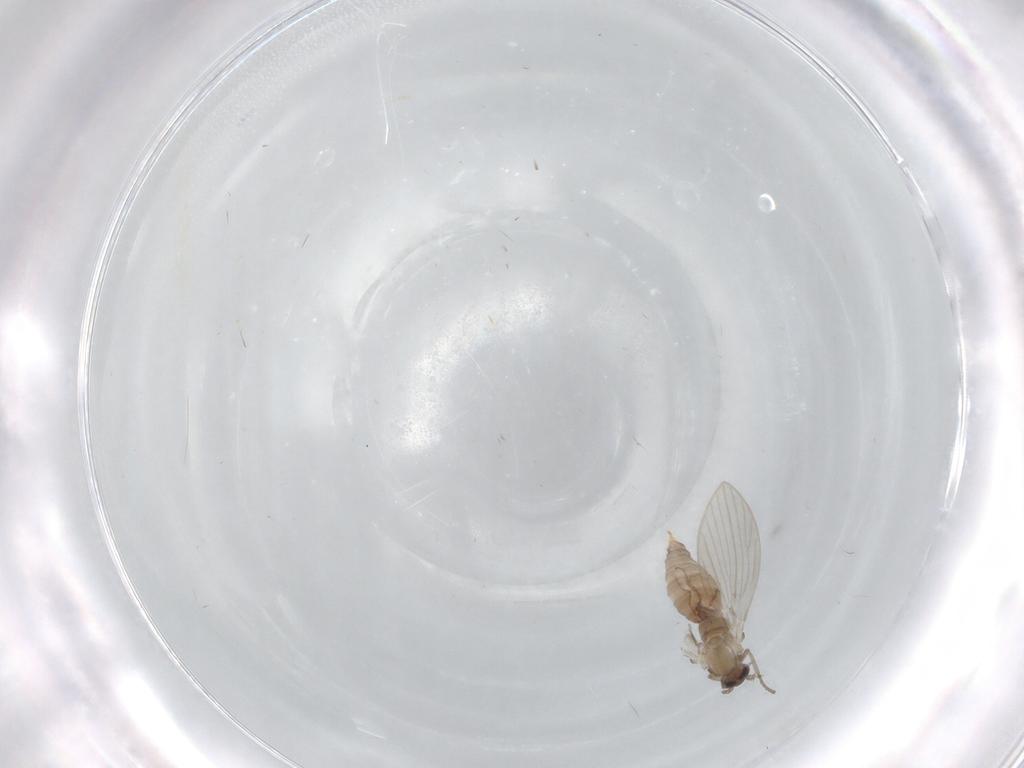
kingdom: Animalia
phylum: Arthropoda
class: Insecta
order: Diptera
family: Psychodidae
